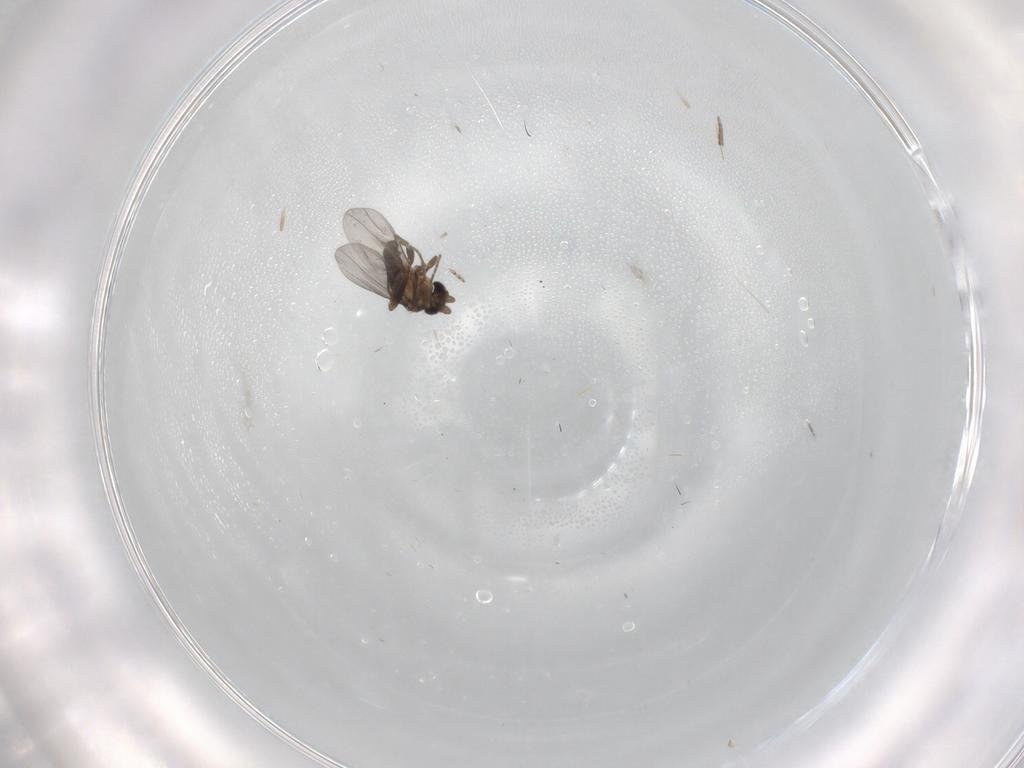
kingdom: Animalia
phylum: Arthropoda
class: Insecta
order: Diptera
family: Cecidomyiidae
